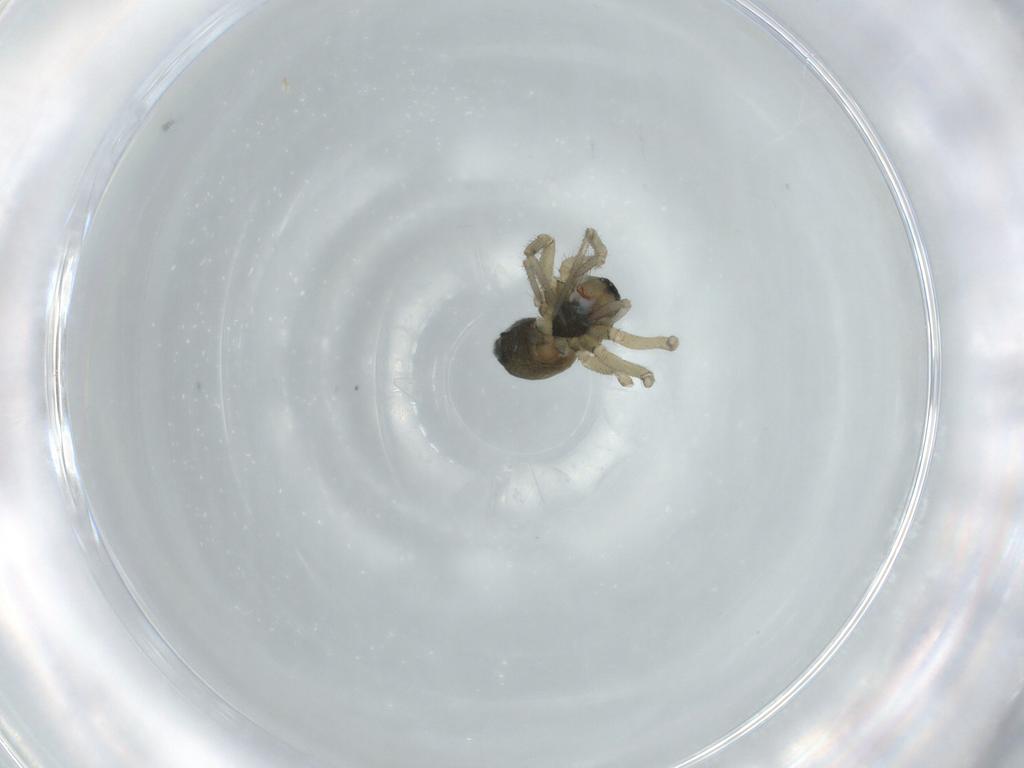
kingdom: Animalia
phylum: Arthropoda
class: Arachnida
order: Araneae
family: Linyphiidae
